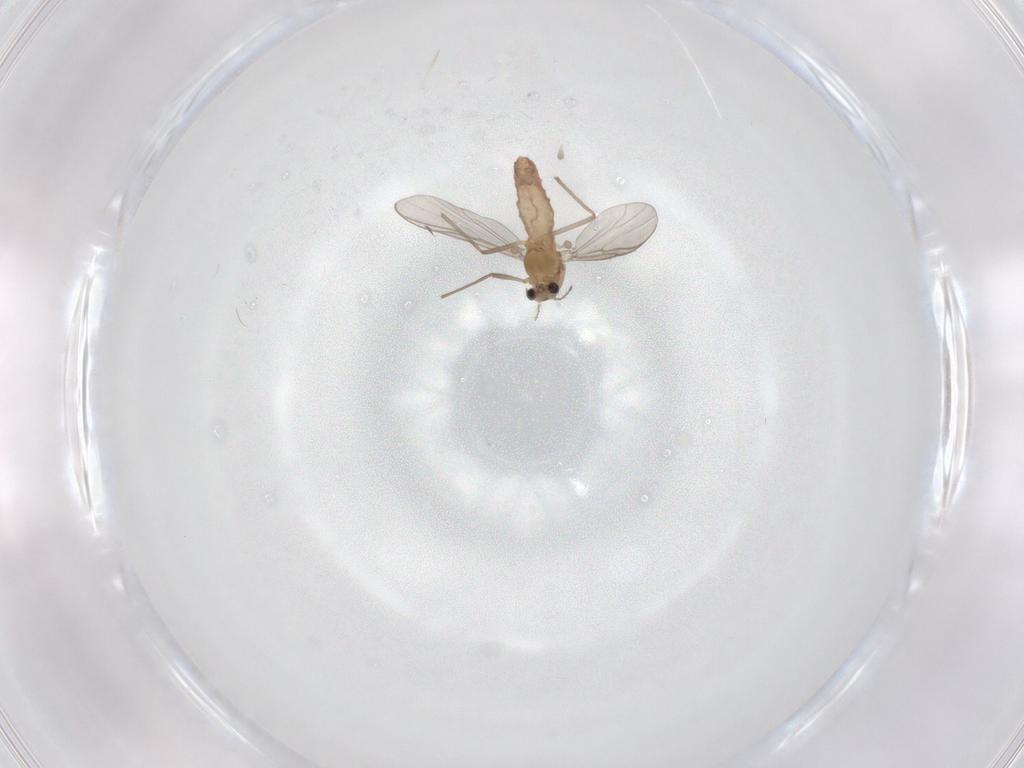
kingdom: Animalia
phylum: Arthropoda
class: Insecta
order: Diptera
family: Chironomidae
